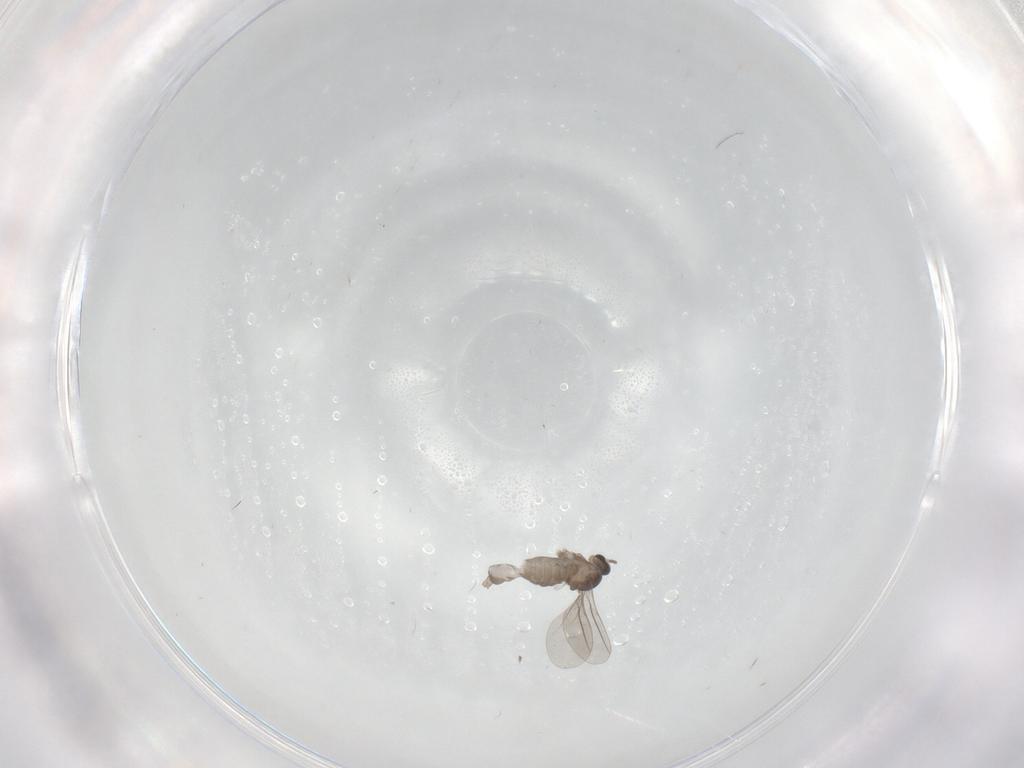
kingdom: Animalia
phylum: Arthropoda
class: Insecta
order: Diptera
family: Cecidomyiidae
